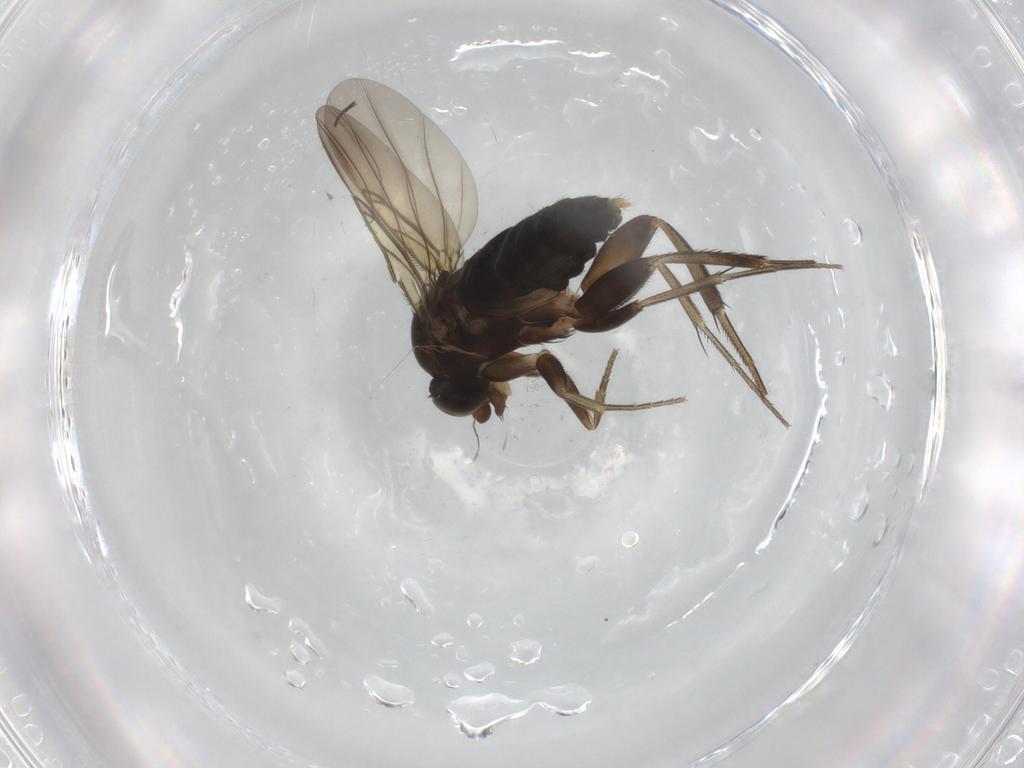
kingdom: Animalia
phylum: Arthropoda
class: Insecta
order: Diptera
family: Phoridae
